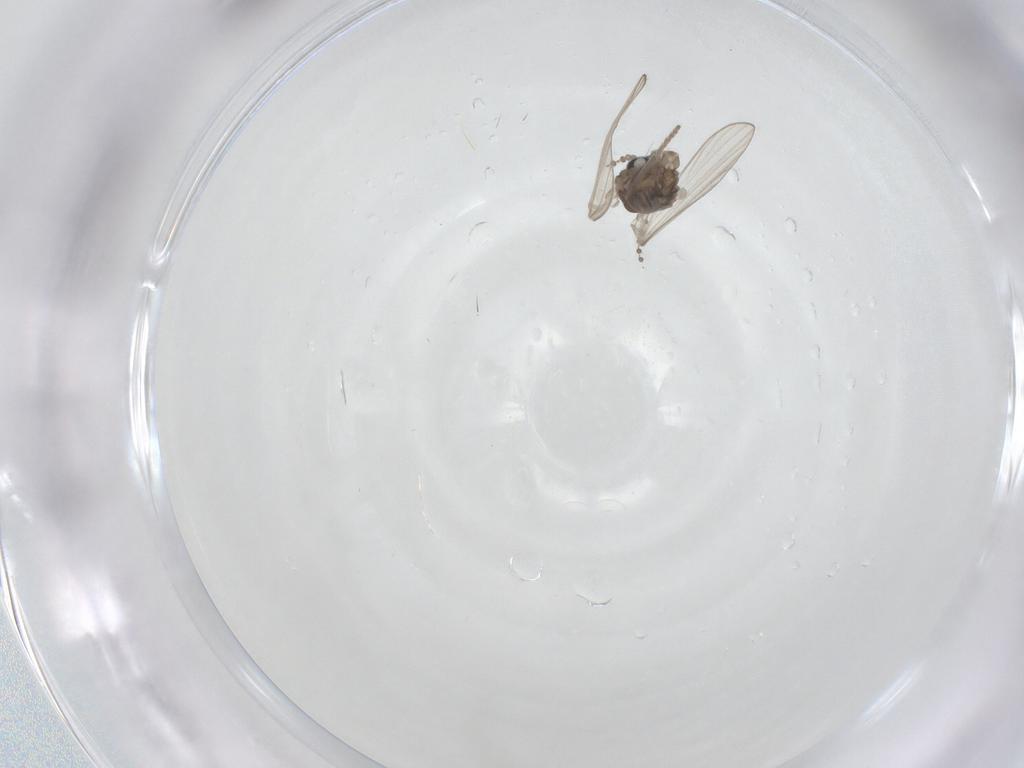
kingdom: Animalia
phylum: Arthropoda
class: Insecta
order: Diptera
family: Psychodidae
